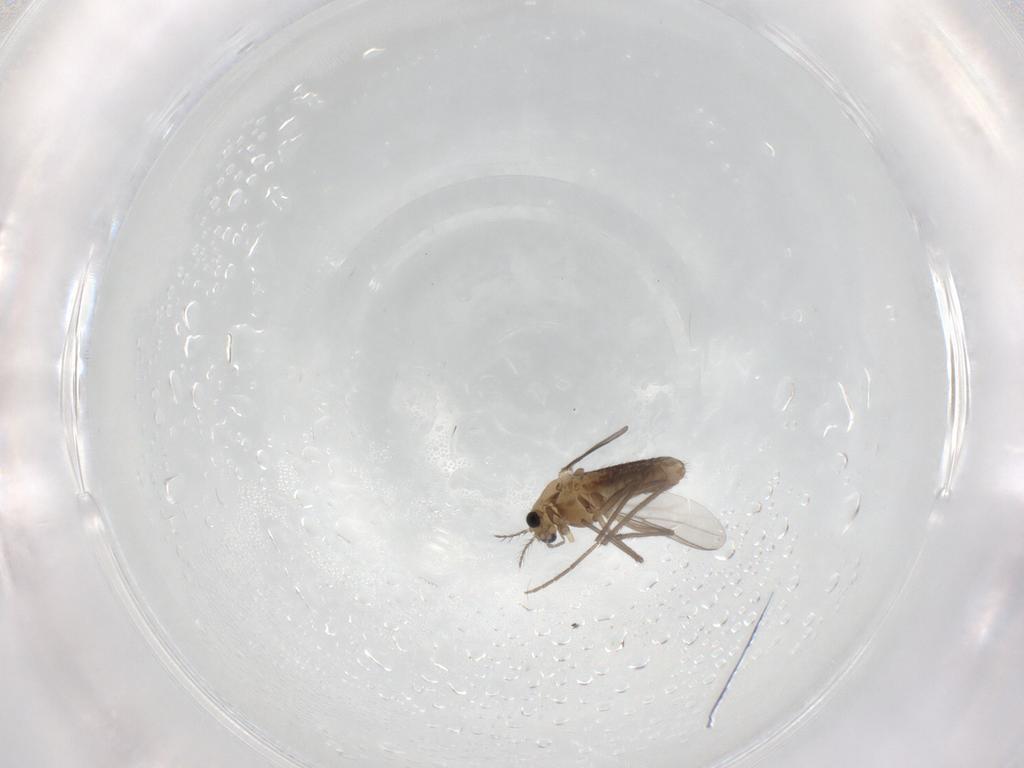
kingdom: Animalia
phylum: Arthropoda
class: Insecta
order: Diptera
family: Chironomidae
